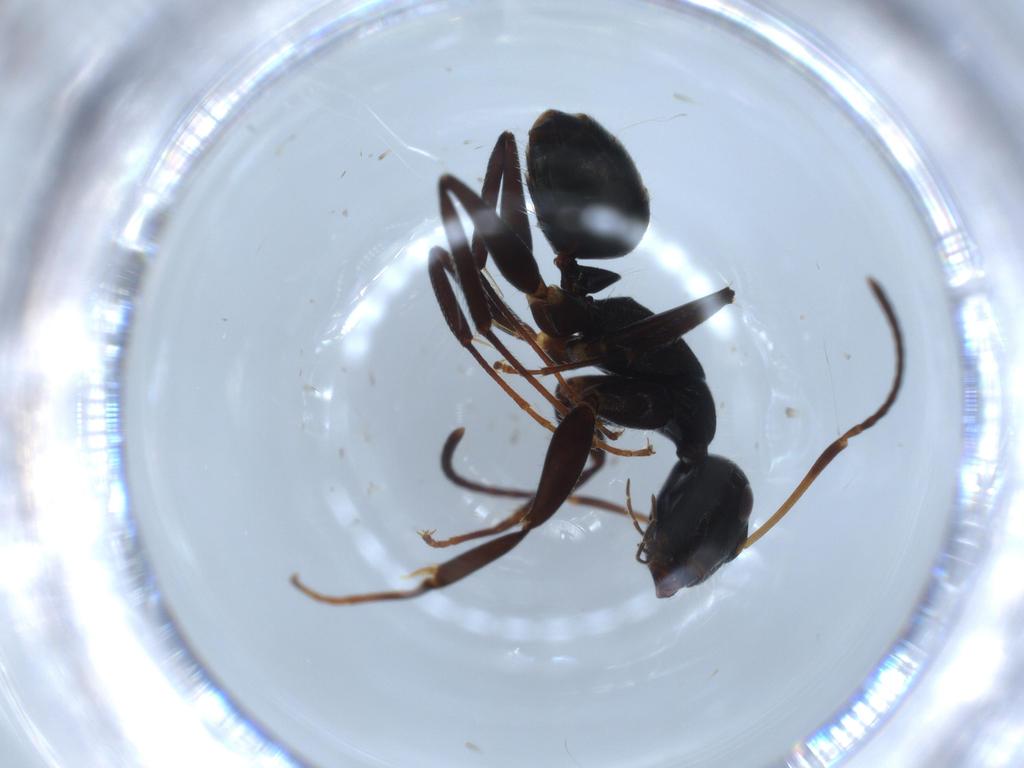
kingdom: Animalia
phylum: Arthropoda
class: Insecta
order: Hymenoptera
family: Formicidae
